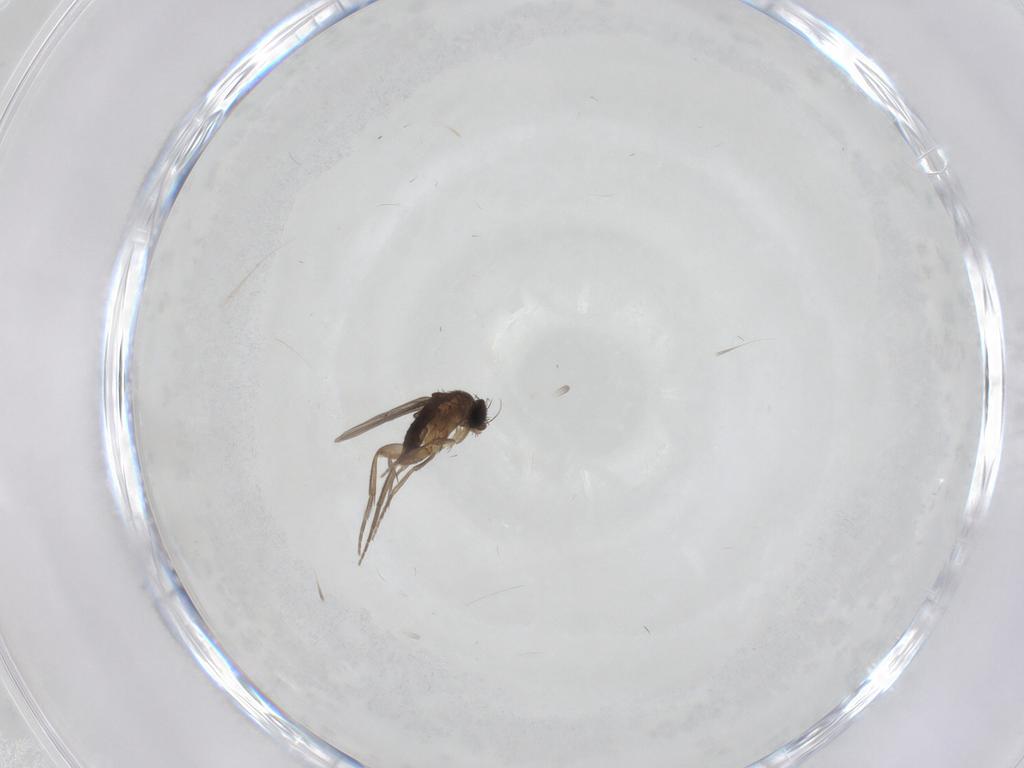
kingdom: Animalia
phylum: Arthropoda
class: Insecta
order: Diptera
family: Phoridae
